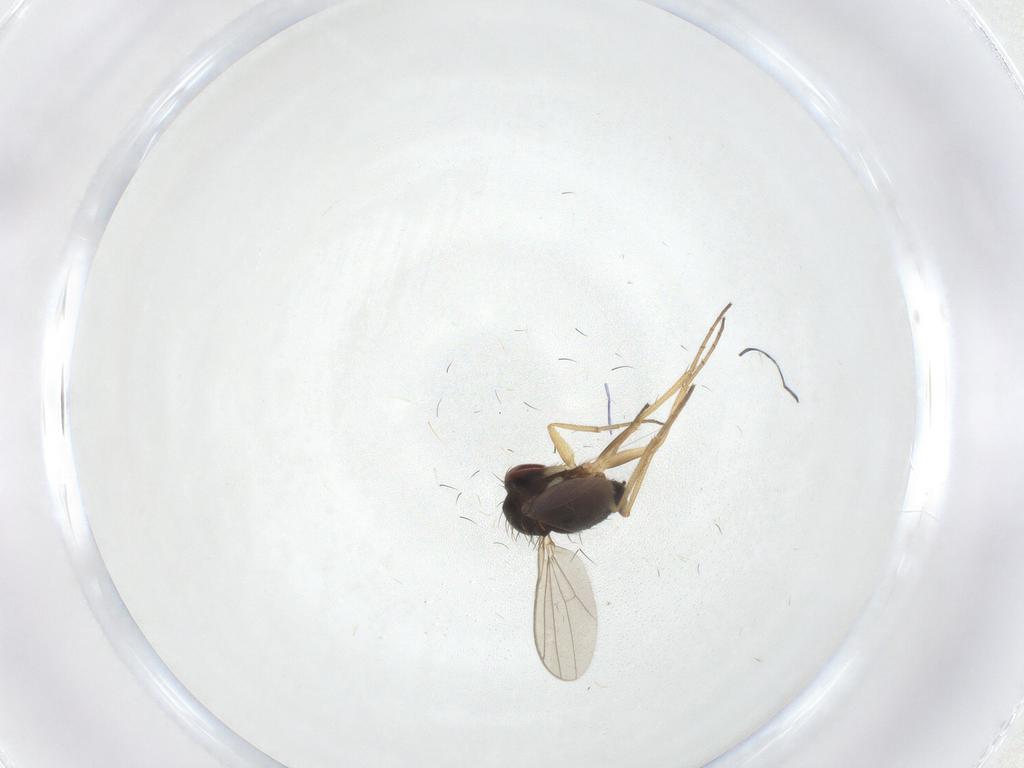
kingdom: Animalia
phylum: Arthropoda
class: Insecta
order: Diptera
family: Dolichopodidae
